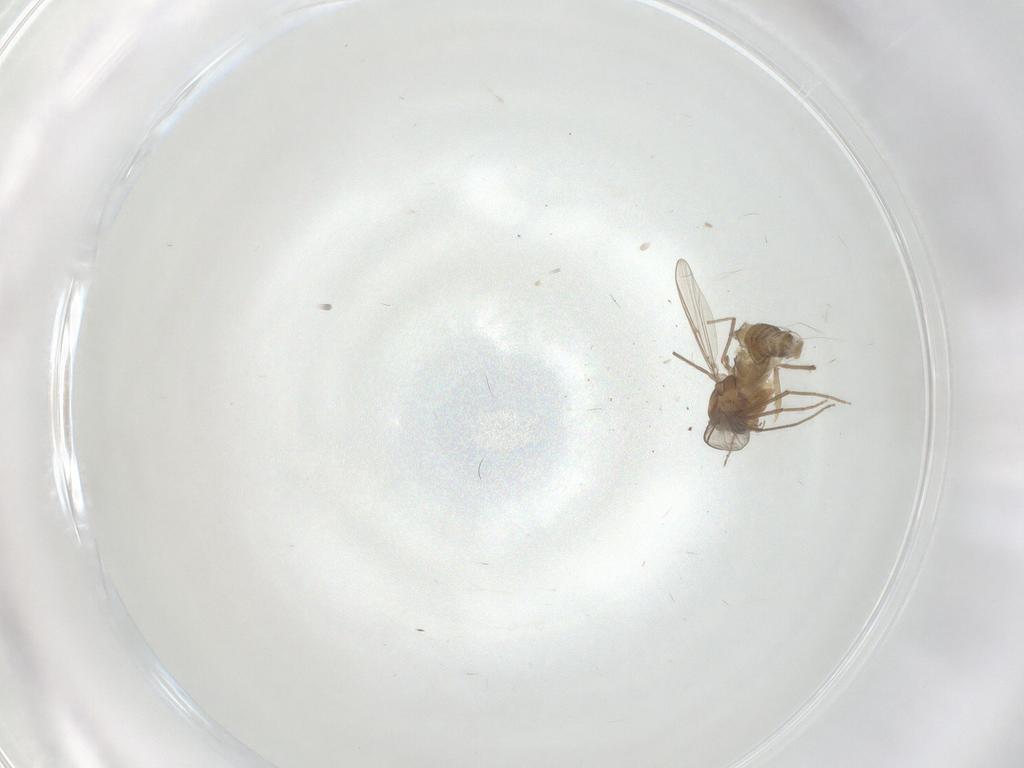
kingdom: Animalia
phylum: Arthropoda
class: Insecta
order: Diptera
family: Chironomidae
